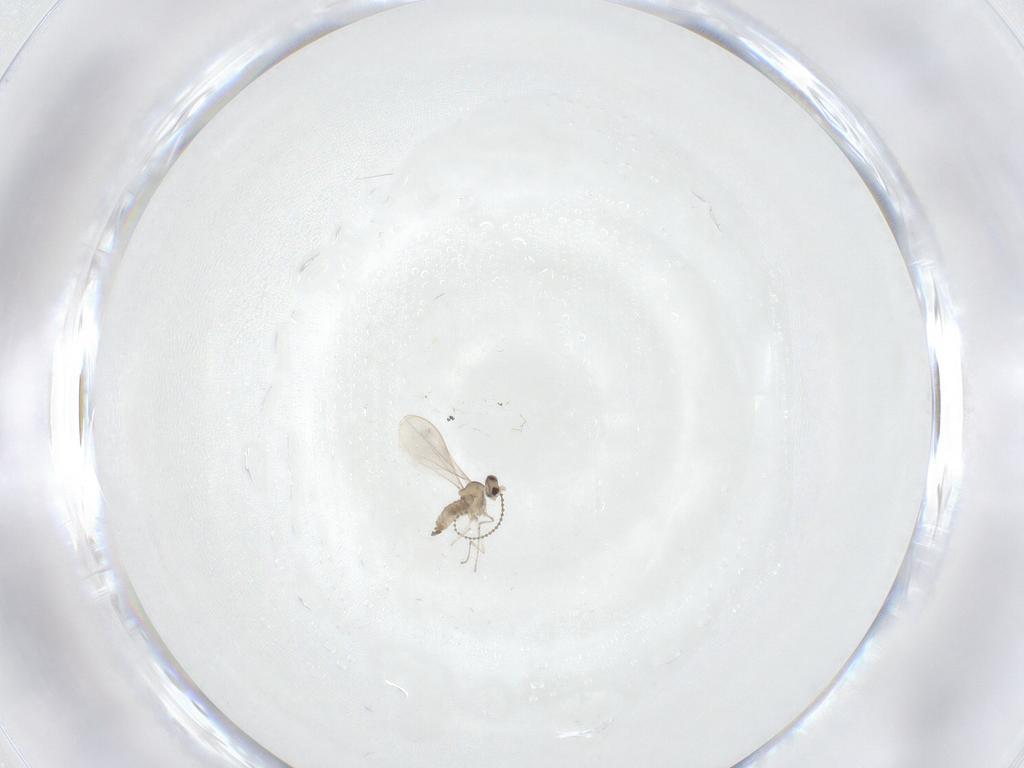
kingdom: Animalia
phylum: Arthropoda
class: Insecta
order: Diptera
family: Cecidomyiidae
